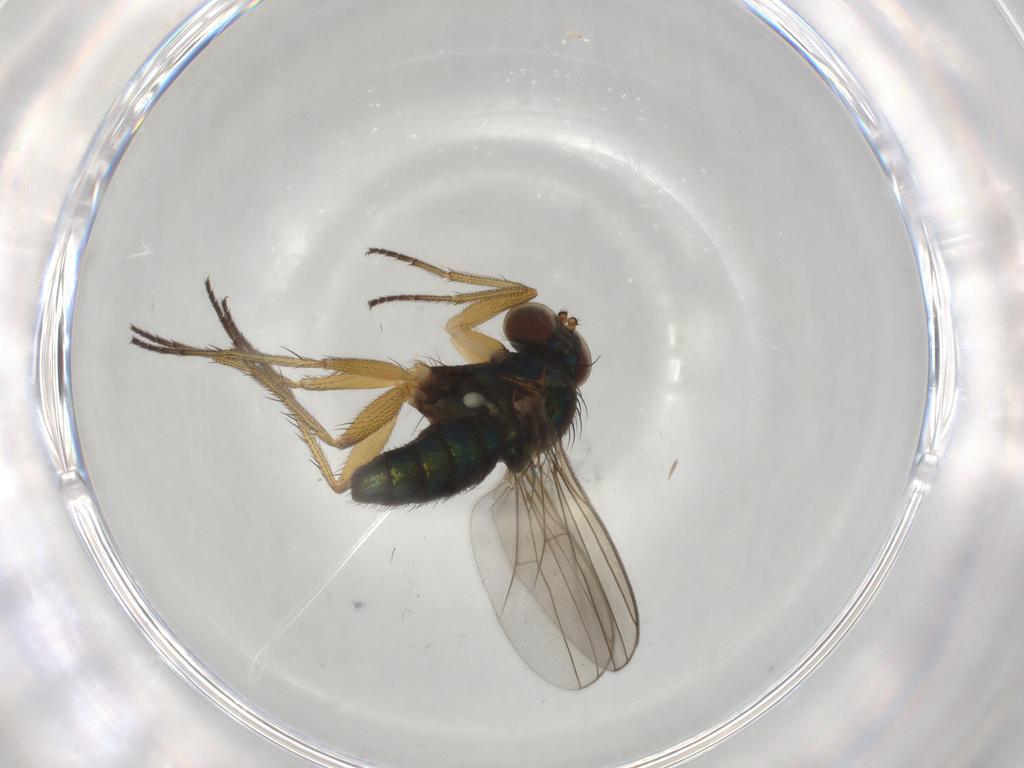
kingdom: Animalia
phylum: Arthropoda
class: Insecta
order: Diptera
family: Dolichopodidae
